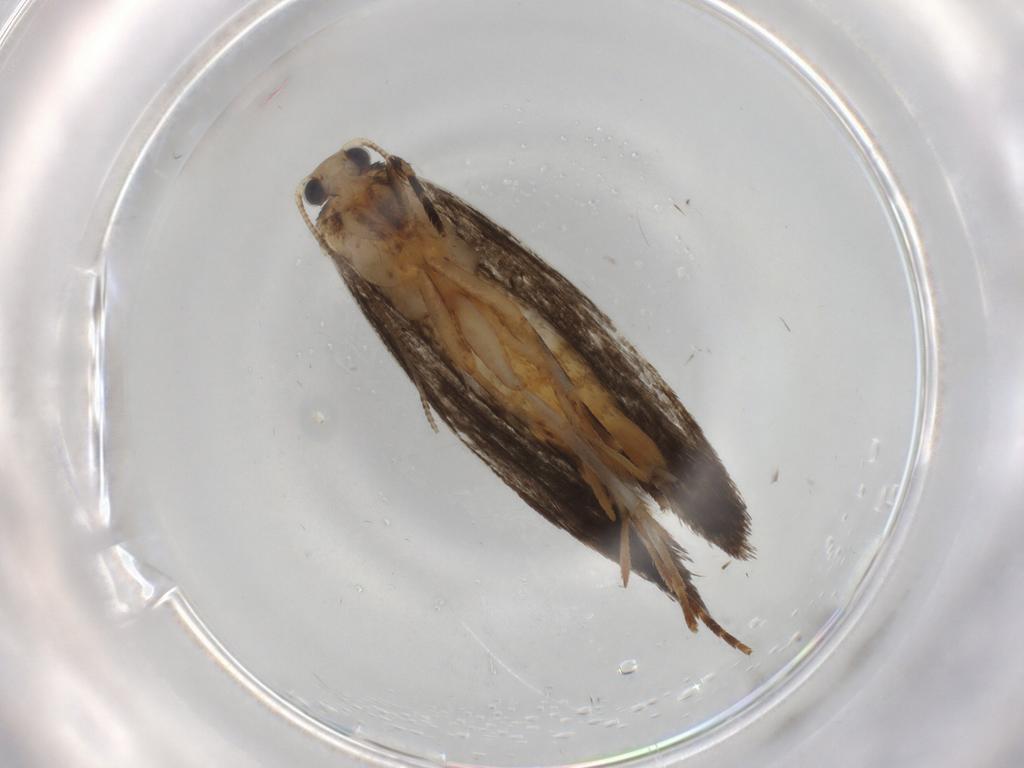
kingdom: Animalia
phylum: Arthropoda
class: Insecta
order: Lepidoptera
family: Tineidae
